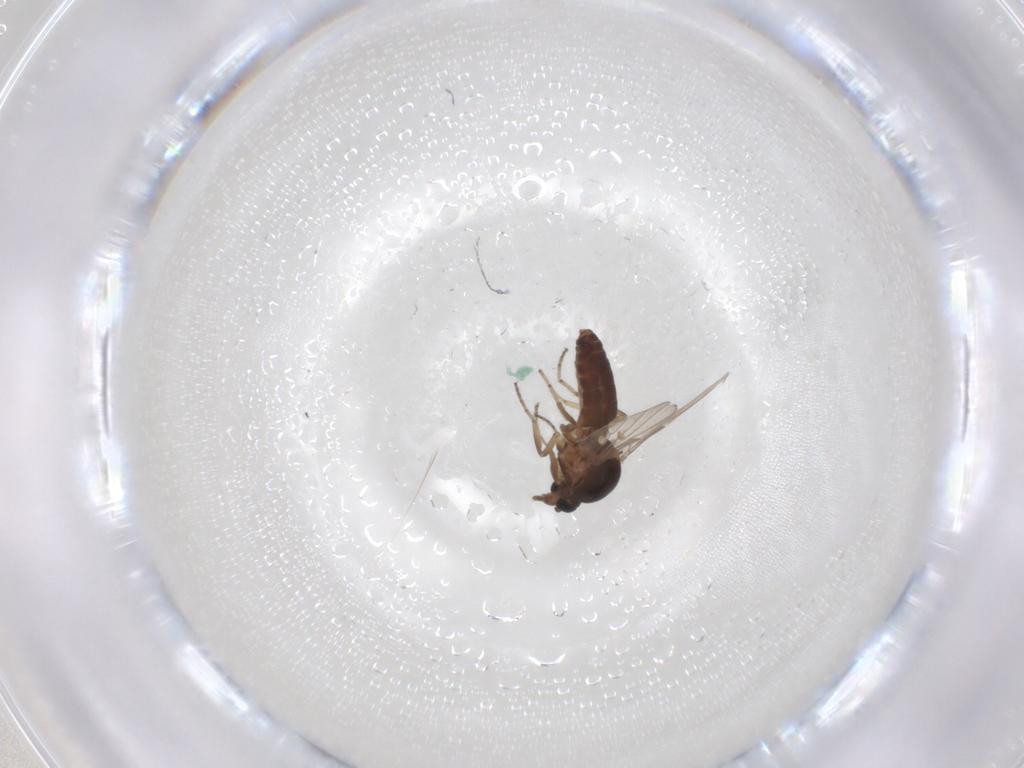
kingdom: Animalia
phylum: Arthropoda
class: Insecta
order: Diptera
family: Ceratopogonidae
